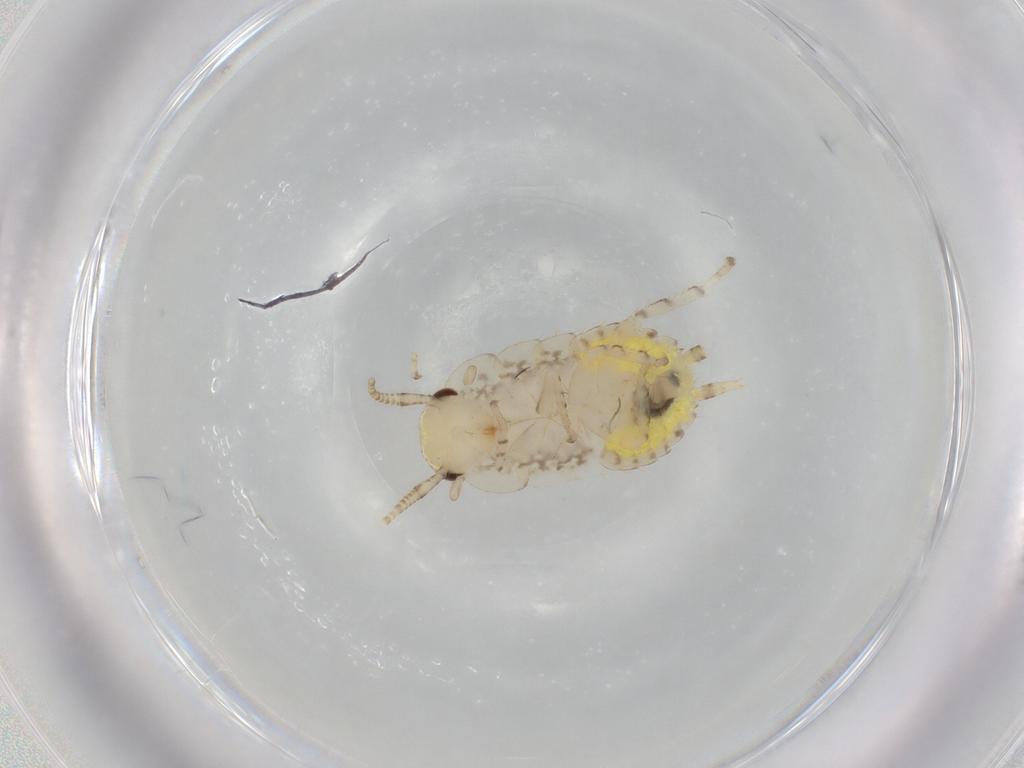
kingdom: Animalia
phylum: Arthropoda
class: Insecta
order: Blattodea
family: Ectobiidae
